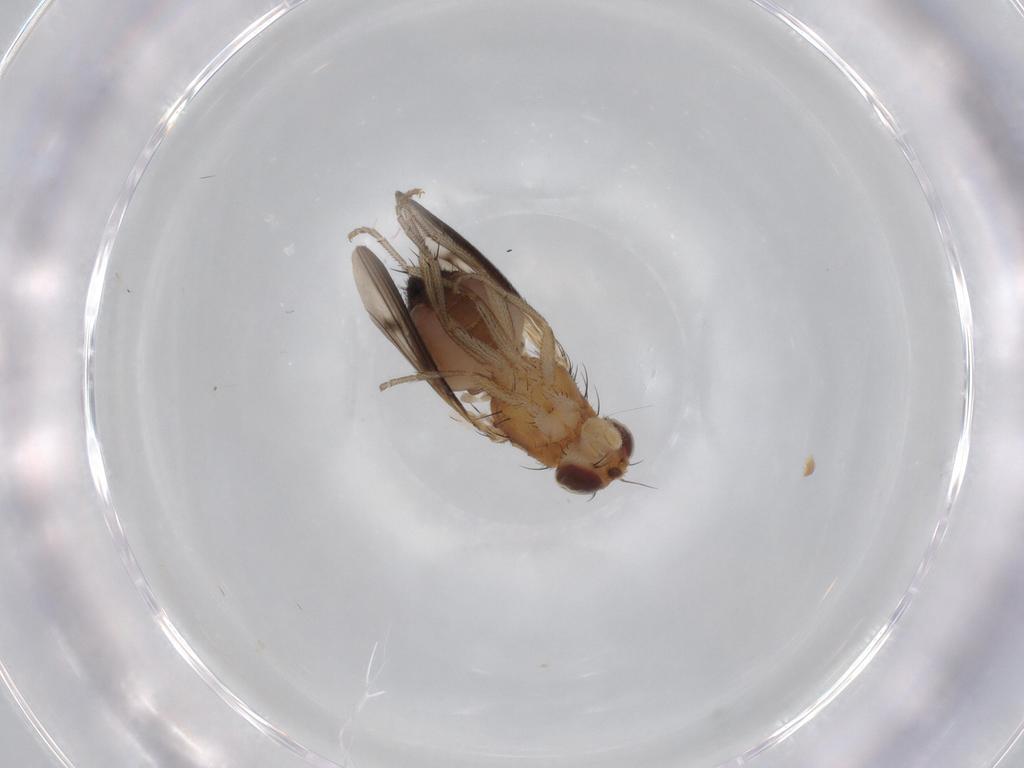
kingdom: Animalia
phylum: Arthropoda
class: Insecta
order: Diptera
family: Heleomyzidae
